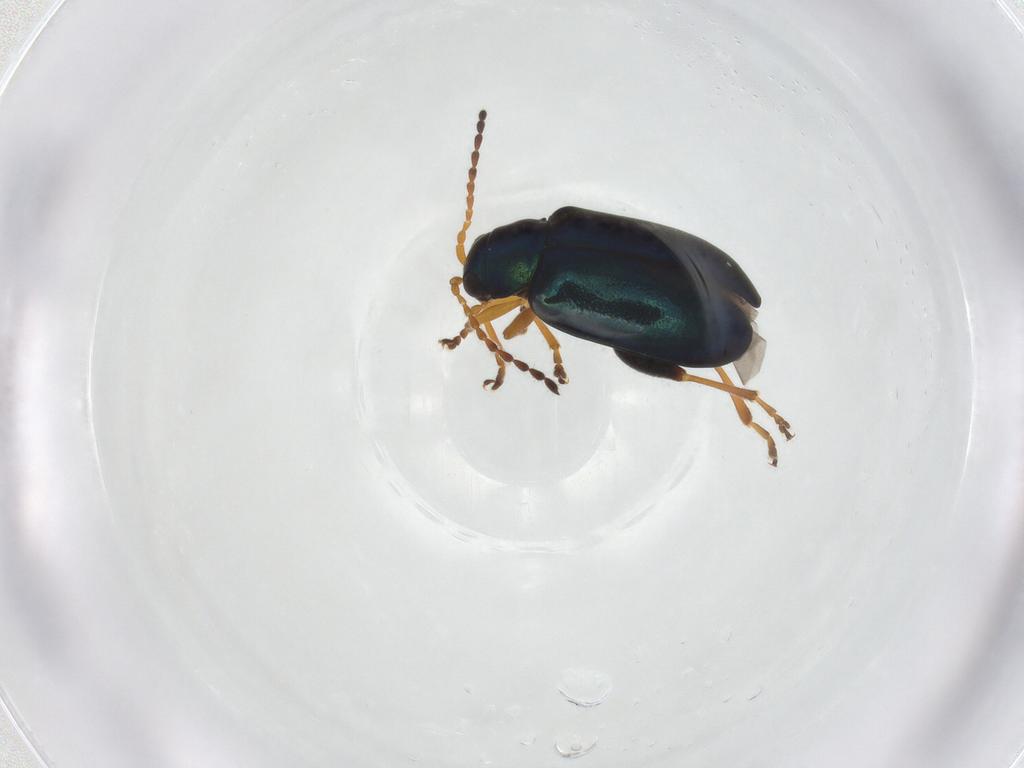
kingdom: Animalia
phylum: Arthropoda
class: Insecta
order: Coleoptera
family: Chrysomelidae
